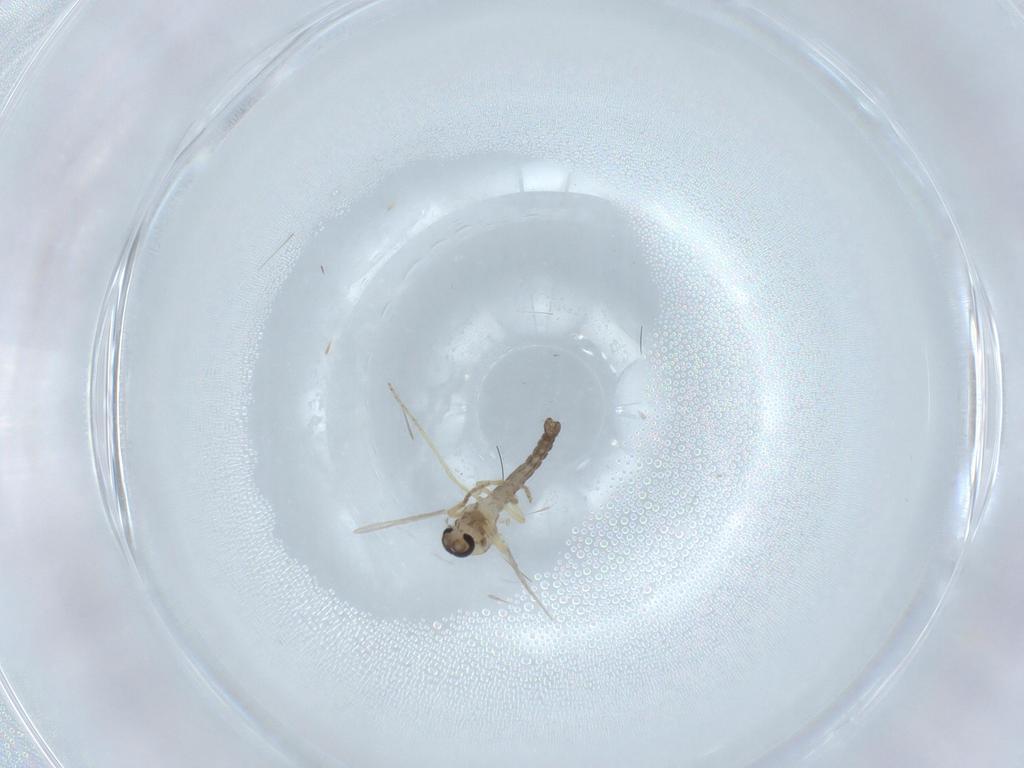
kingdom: Animalia
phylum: Arthropoda
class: Insecta
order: Diptera
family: Ceratopogonidae
